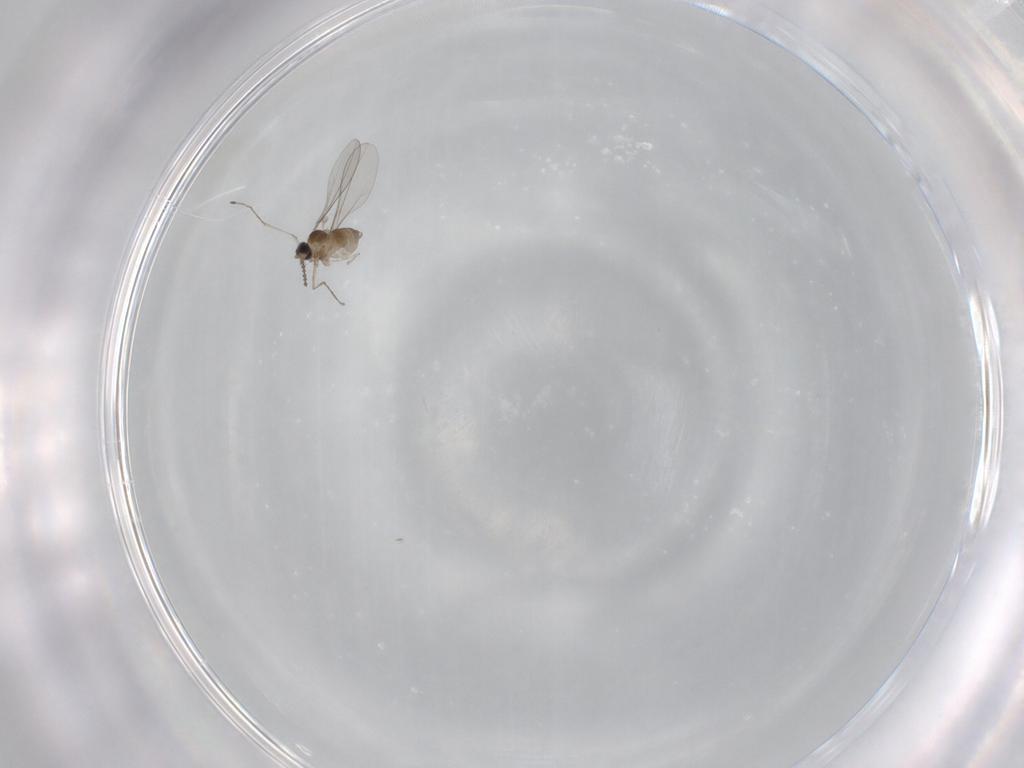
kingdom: Animalia
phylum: Arthropoda
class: Insecta
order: Diptera
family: Cecidomyiidae
